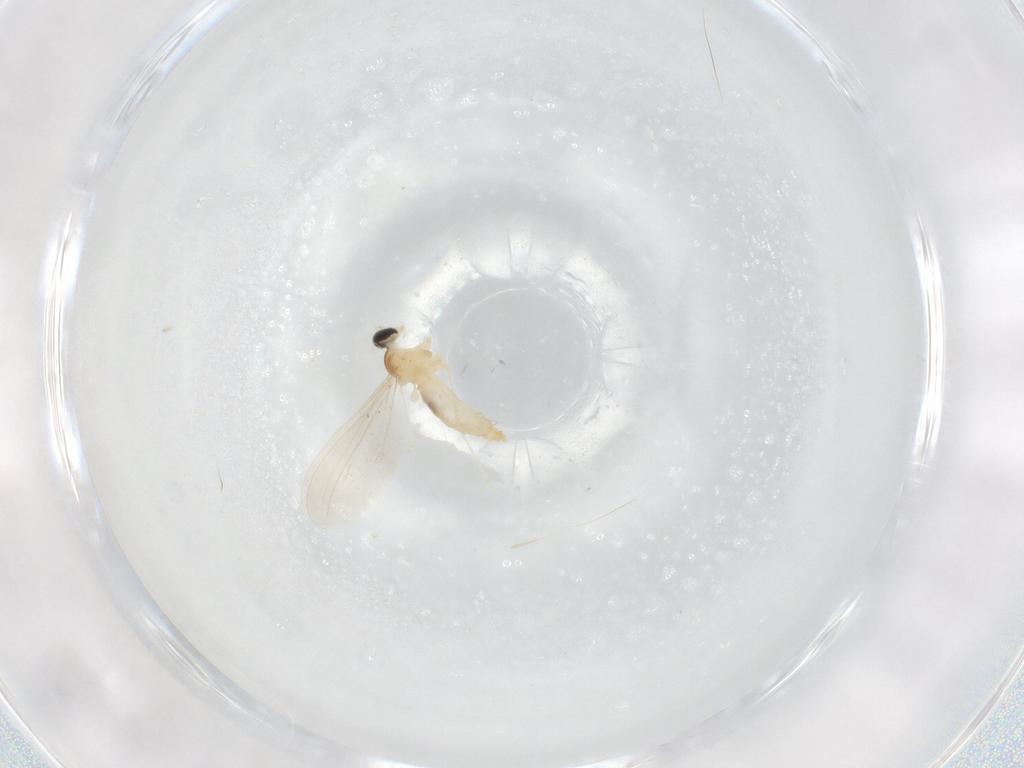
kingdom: Animalia
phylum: Arthropoda
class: Insecta
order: Diptera
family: Cecidomyiidae
